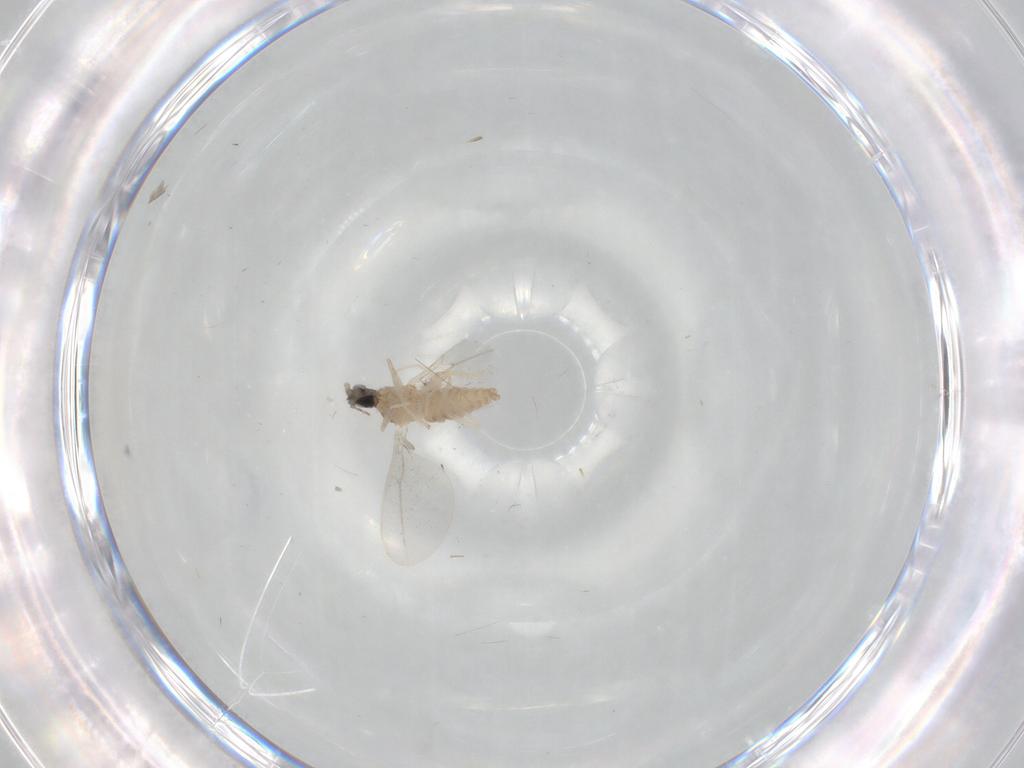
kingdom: Animalia
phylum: Arthropoda
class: Insecta
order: Diptera
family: Cecidomyiidae
